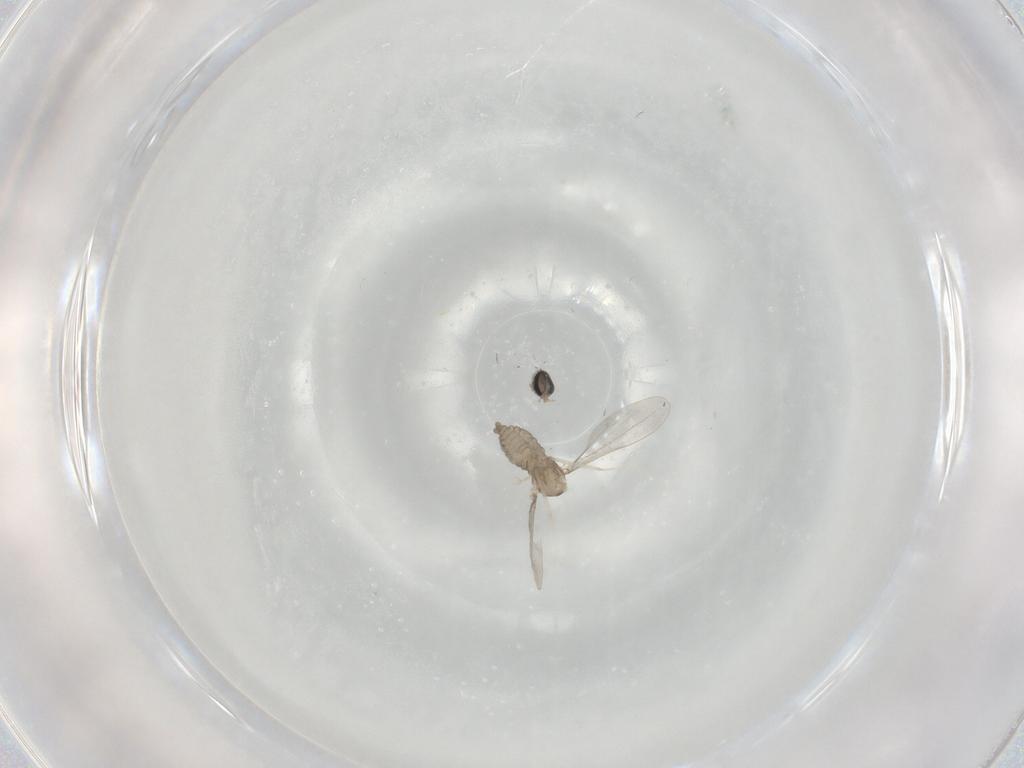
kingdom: Animalia
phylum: Arthropoda
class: Insecta
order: Diptera
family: Cecidomyiidae
